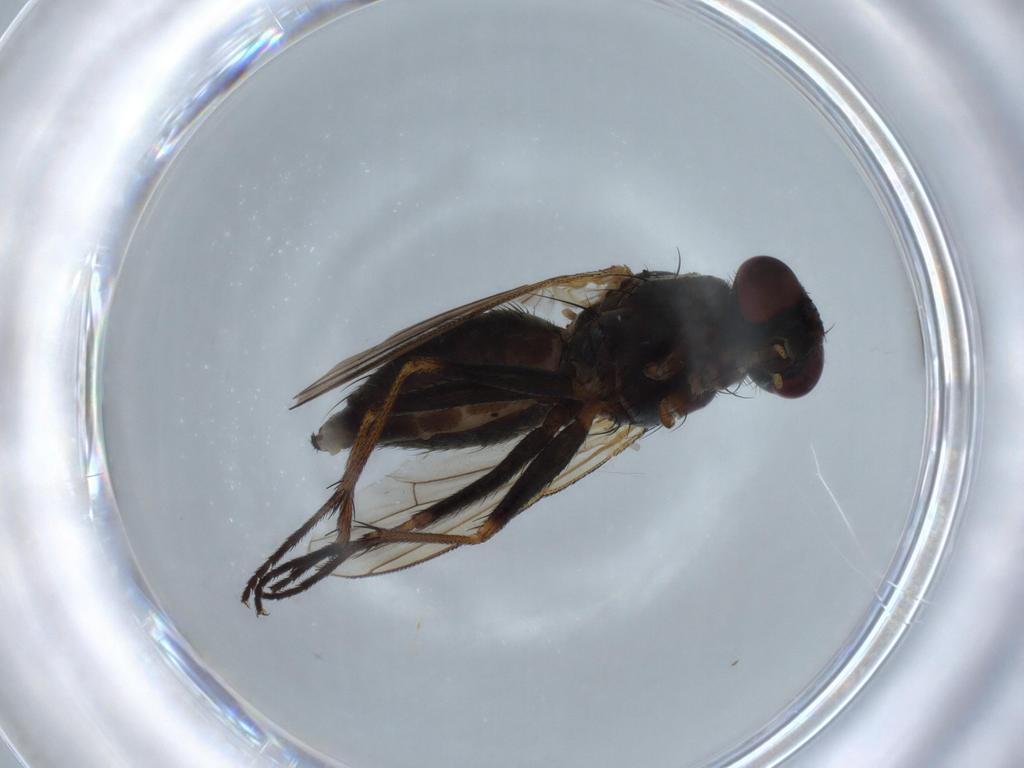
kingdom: Animalia
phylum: Arthropoda
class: Insecta
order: Diptera
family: Muscidae
